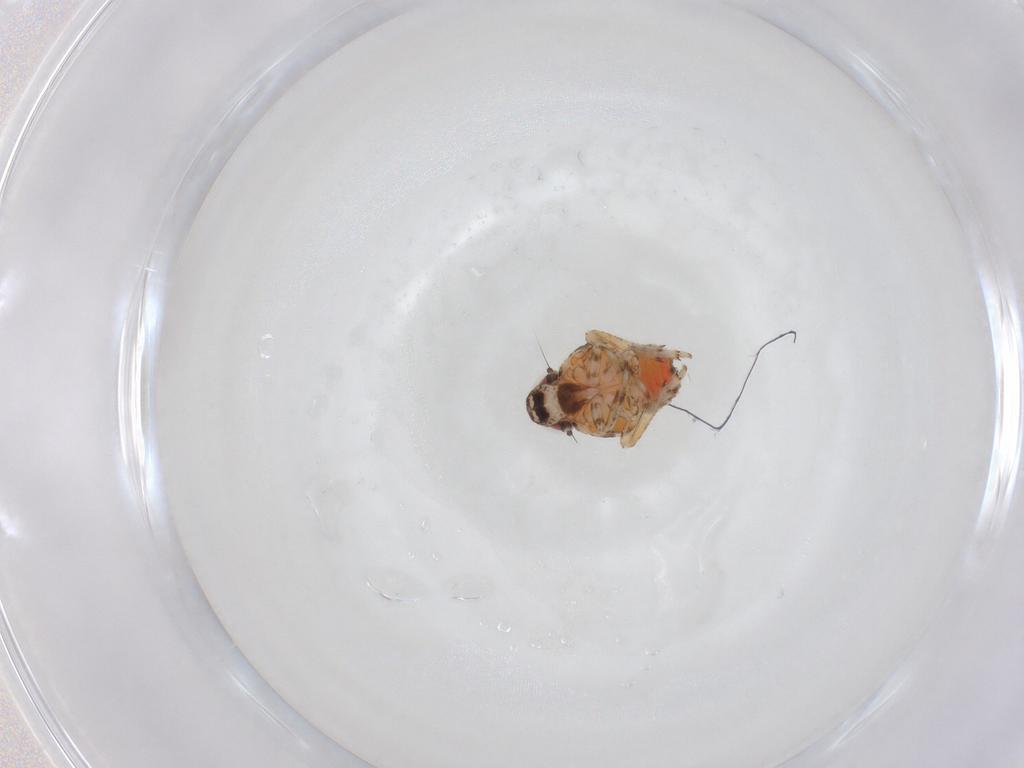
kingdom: Animalia
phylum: Arthropoda
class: Insecta
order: Hemiptera
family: Issidae
